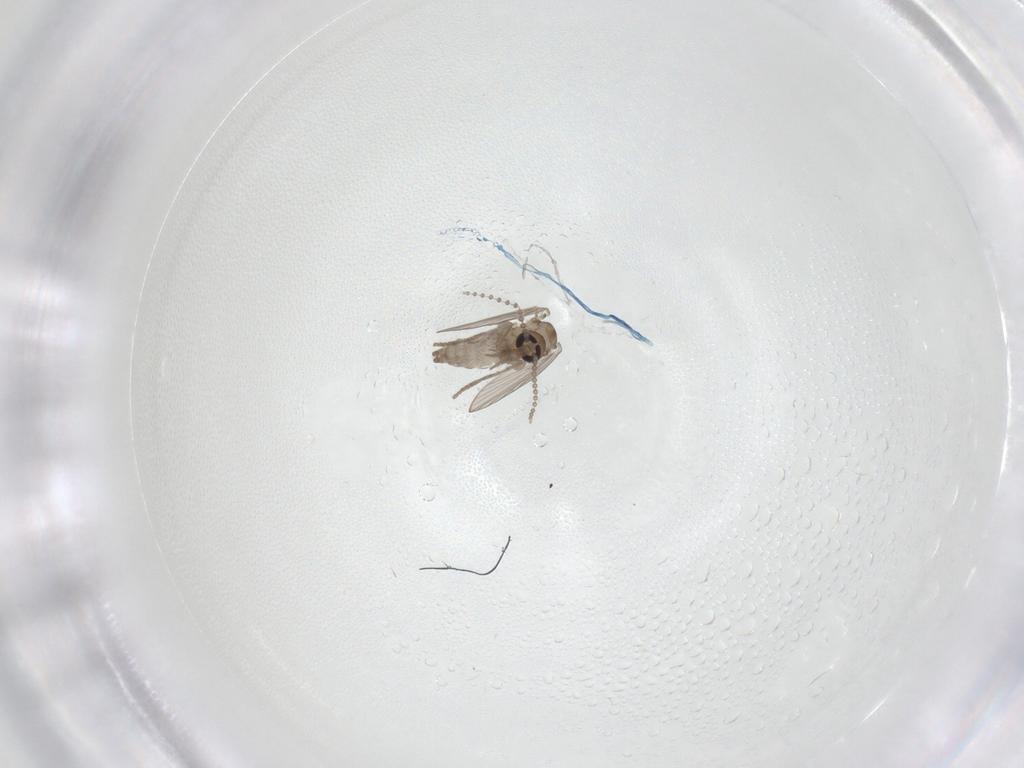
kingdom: Animalia
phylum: Arthropoda
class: Insecta
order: Diptera
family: Psychodidae
